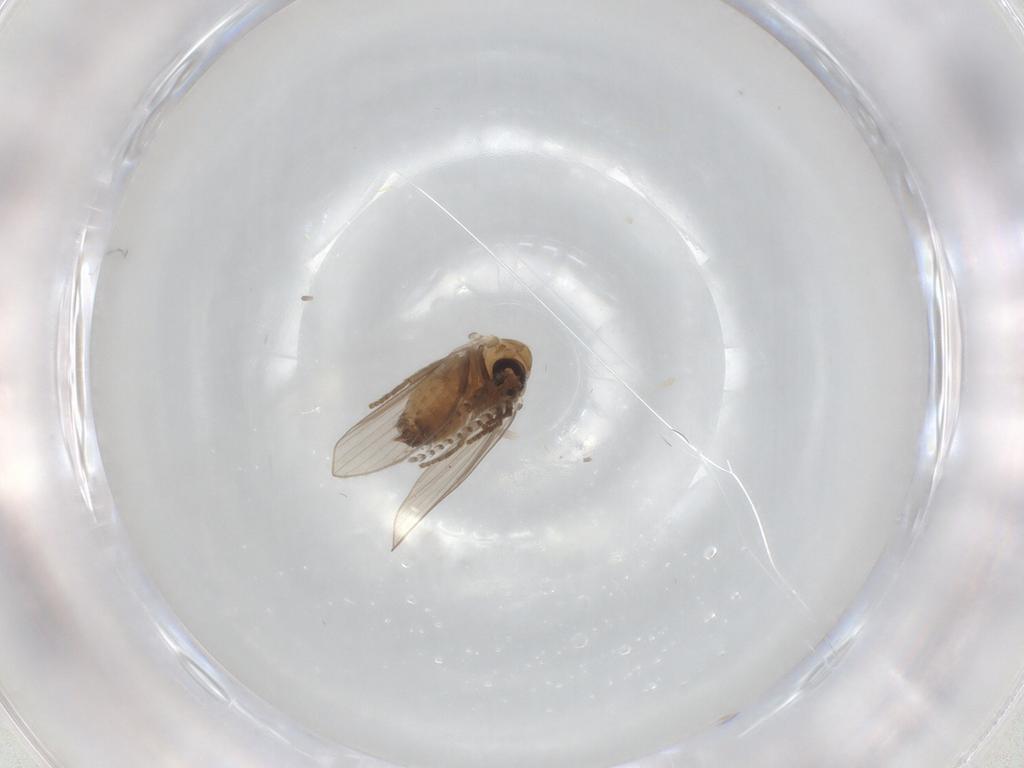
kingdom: Animalia
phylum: Arthropoda
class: Insecta
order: Diptera
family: Psychodidae
